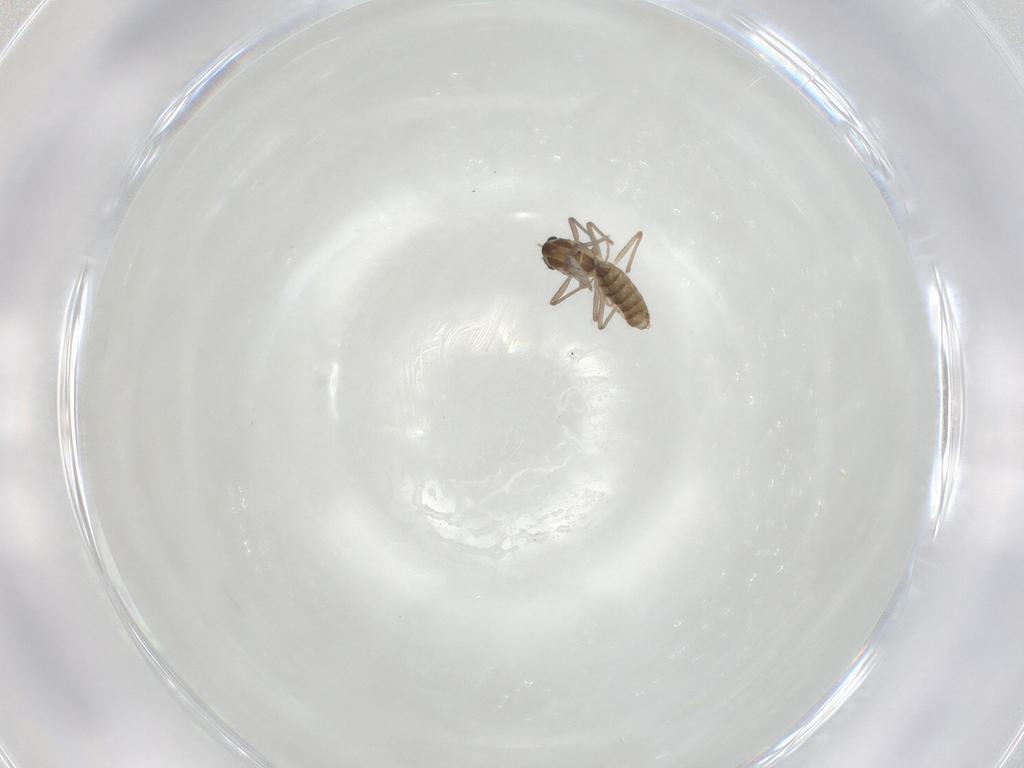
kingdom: Animalia
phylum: Arthropoda
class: Insecta
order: Diptera
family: Chironomidae
